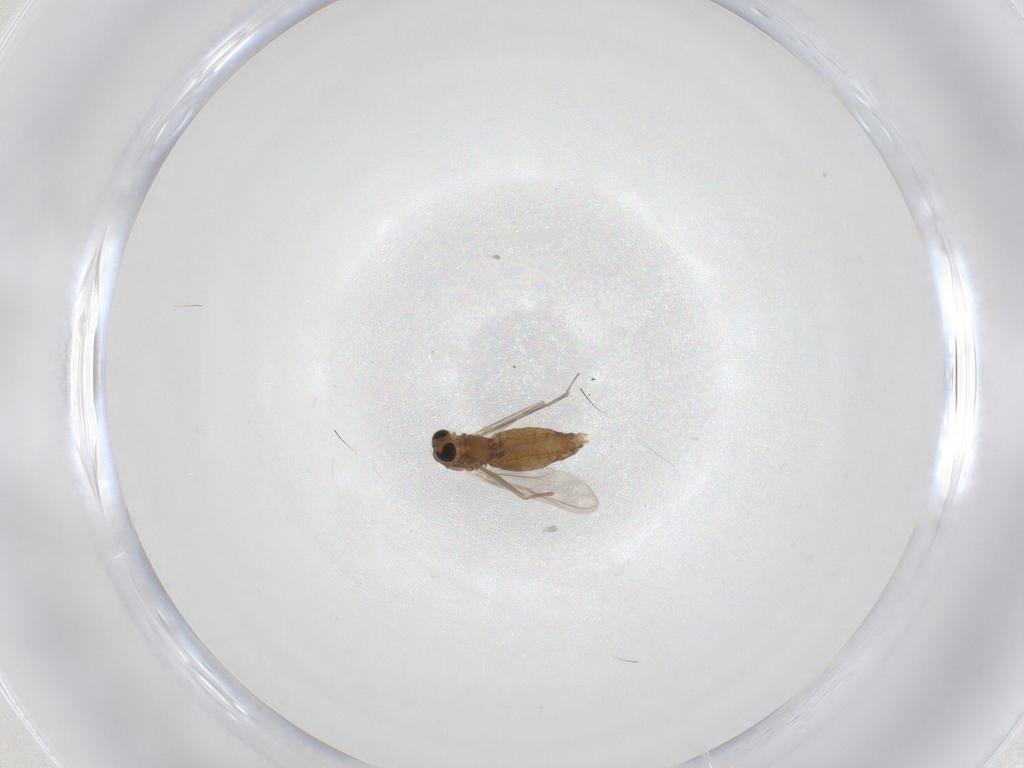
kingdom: Animalia
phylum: Arthropoda
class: Insecta
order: Diptera
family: Chironomidae
